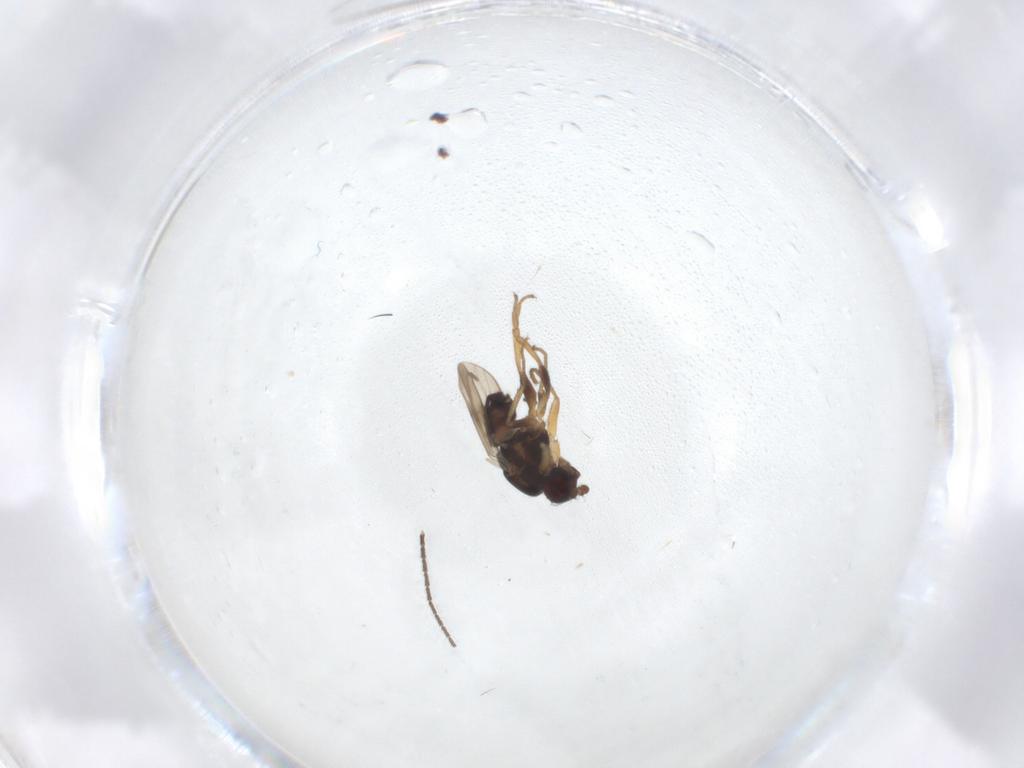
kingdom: Animalia
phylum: Arthropoda
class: Insecta
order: Diptera
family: Sphaeroceridae
